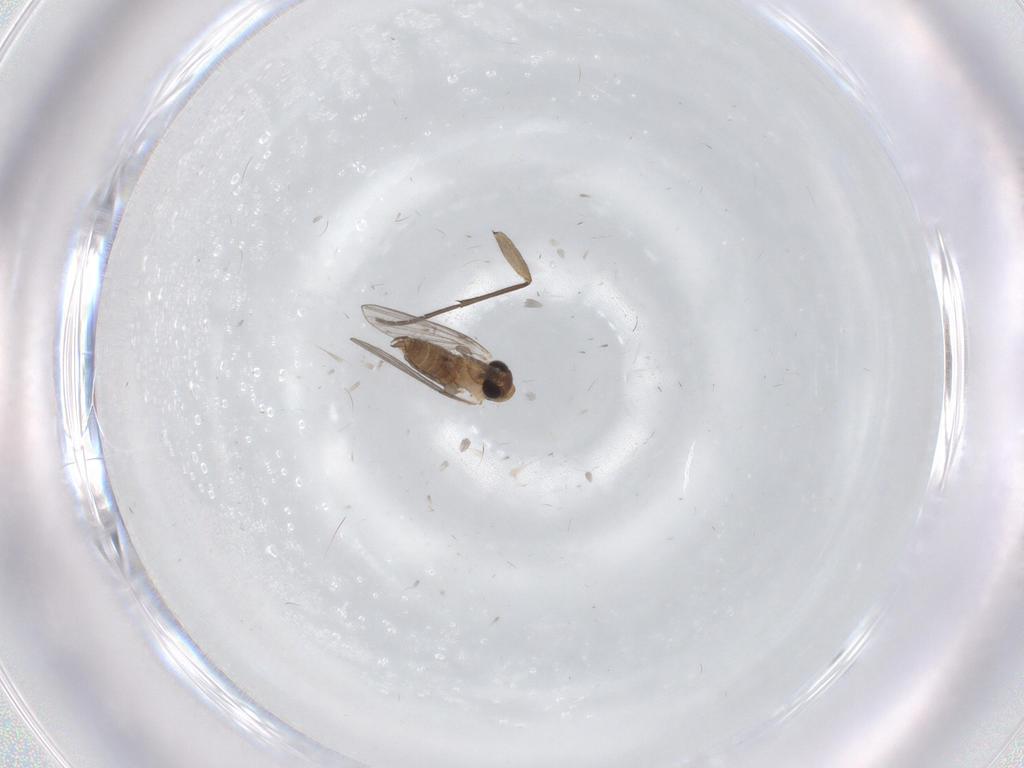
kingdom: Animalia
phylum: Arthropoda
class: Insecta
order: Diptera
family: Sciaridae
